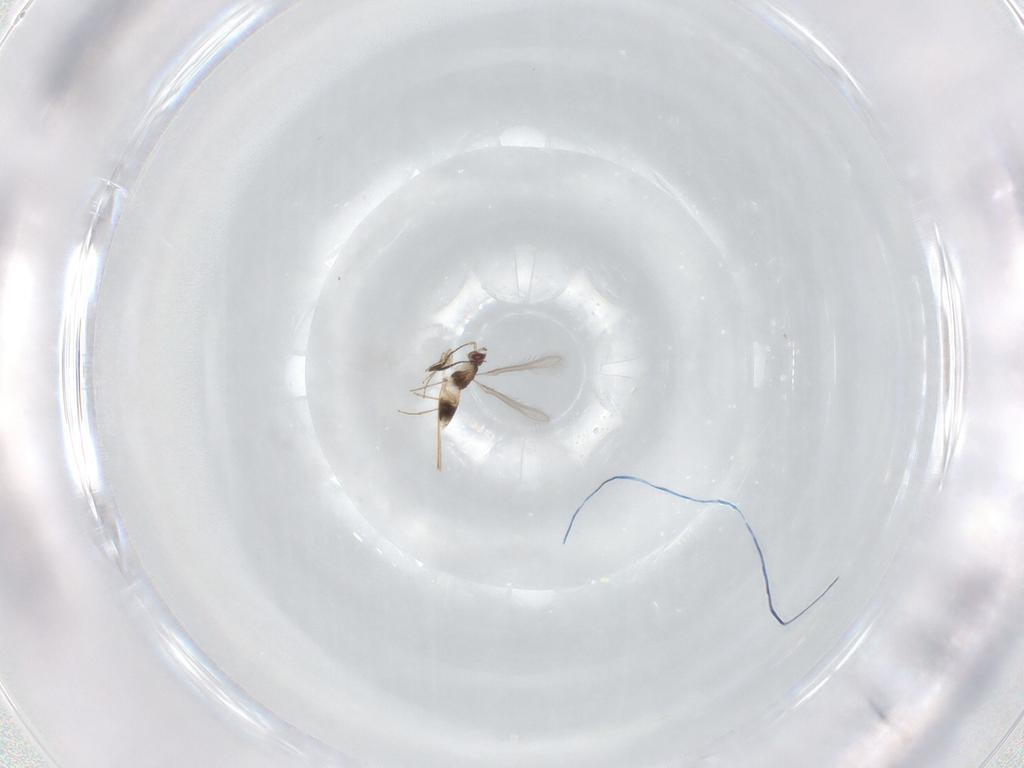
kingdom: Animalia
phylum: Arthropoda
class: Insecta
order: Hymenoptera
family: Mymaridae
